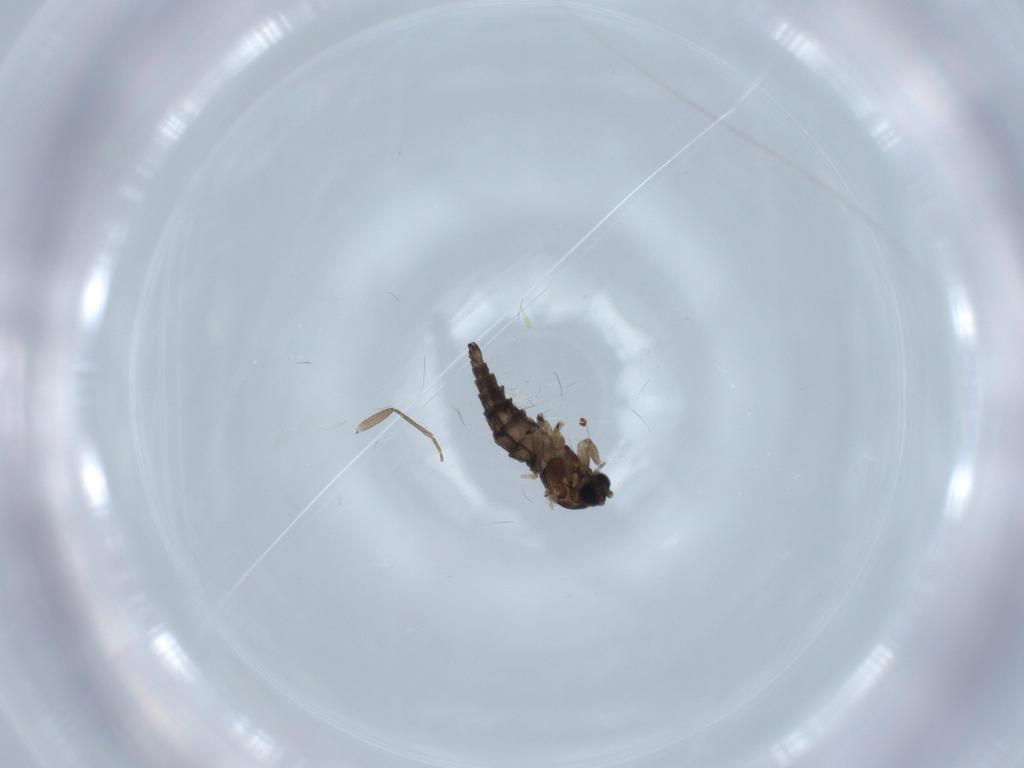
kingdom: Animalia
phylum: Arthropoda
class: Insecta
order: Diptera
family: Sciaridae
